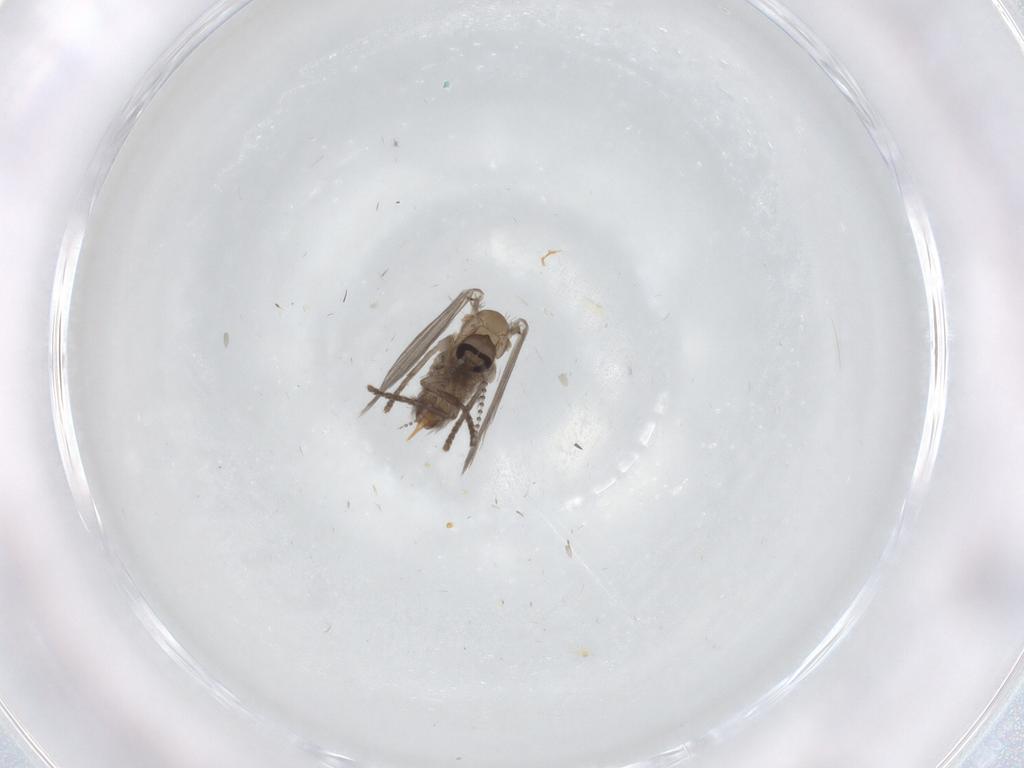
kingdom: Animalia
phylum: Arthropoda
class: Insecta
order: Diptera
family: Psychodidae
